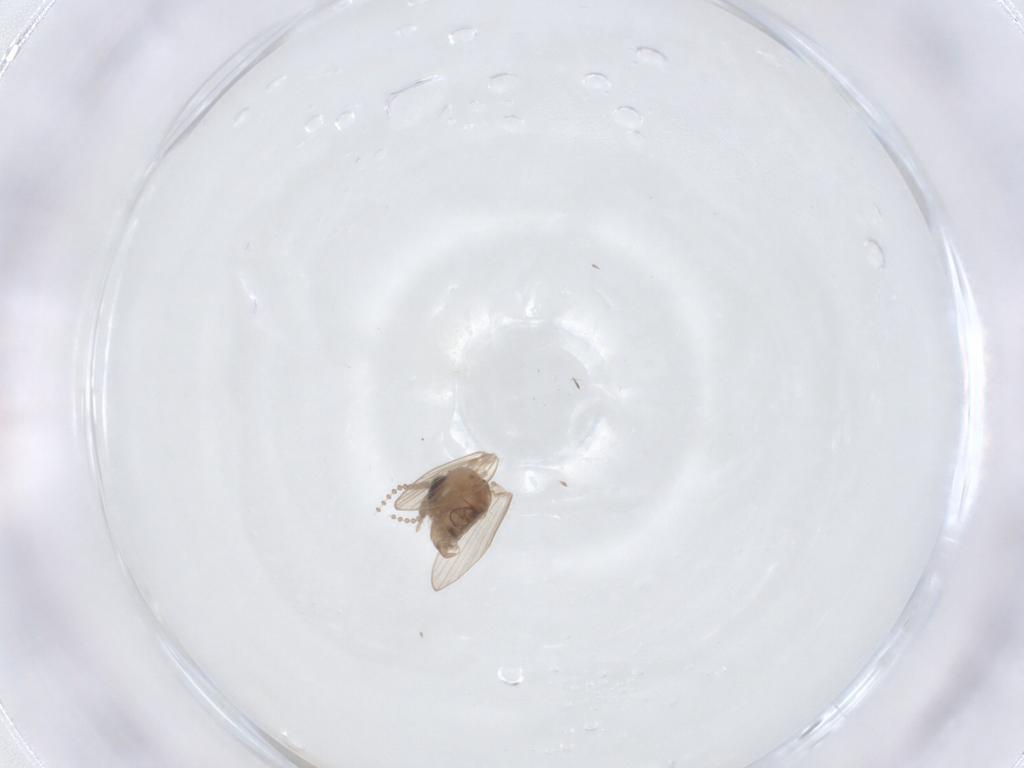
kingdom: Animalia
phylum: Arthropoda
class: Insecta
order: Diptera
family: Psychodidae
